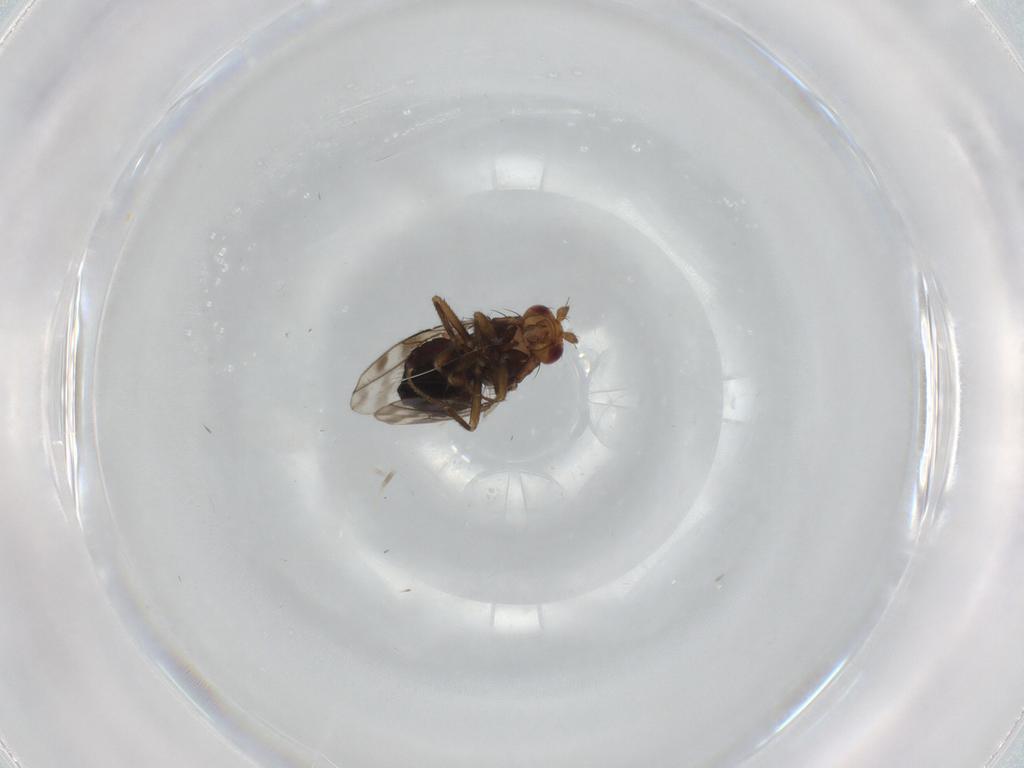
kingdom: Animalia
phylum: Arthropoda
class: Insecta
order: Diptera
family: Sphaeroceridae
